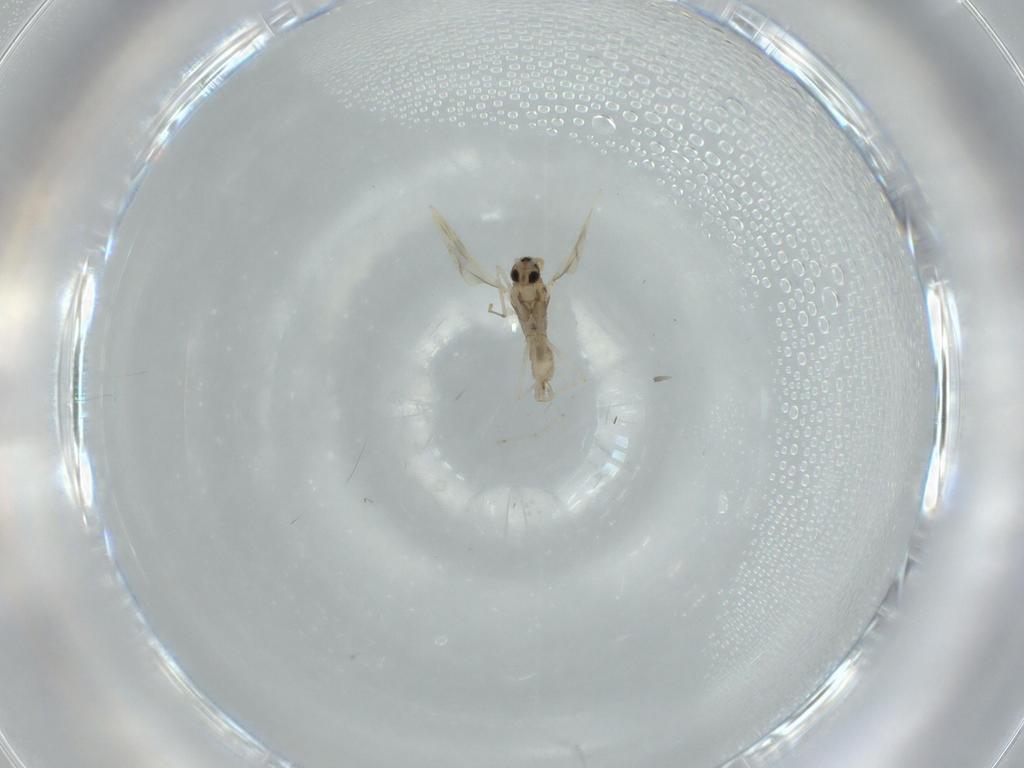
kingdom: Animalia
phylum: Arthropoda
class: Insecta
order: Diptera
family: Cecidomyiidae
